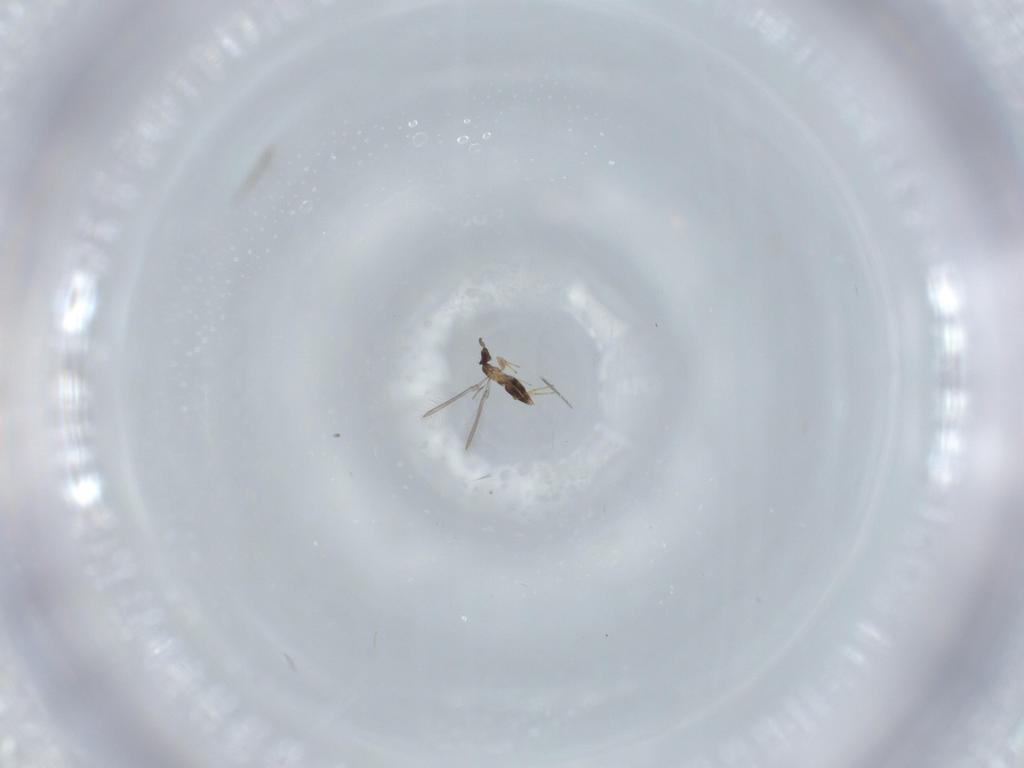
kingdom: Animalia
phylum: Arthropoda
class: Insecta
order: Hymenoptera
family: Mymaridae
